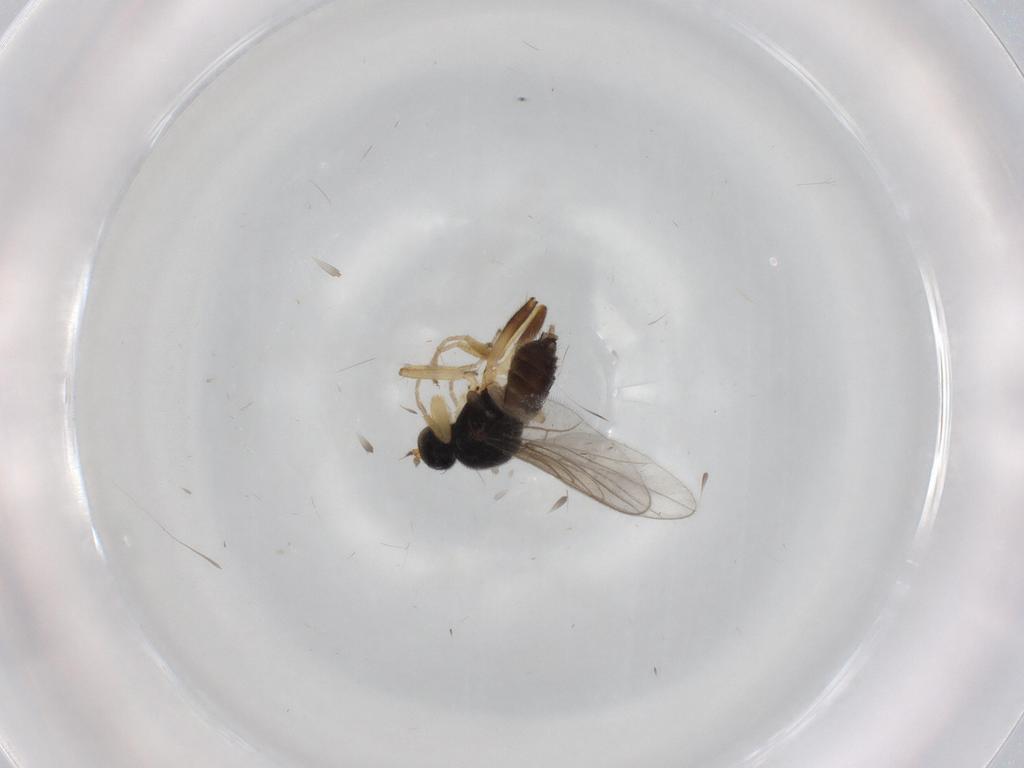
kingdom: Animalia
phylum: Arthropoda
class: Insecta
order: Diptera
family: Hybotidae
